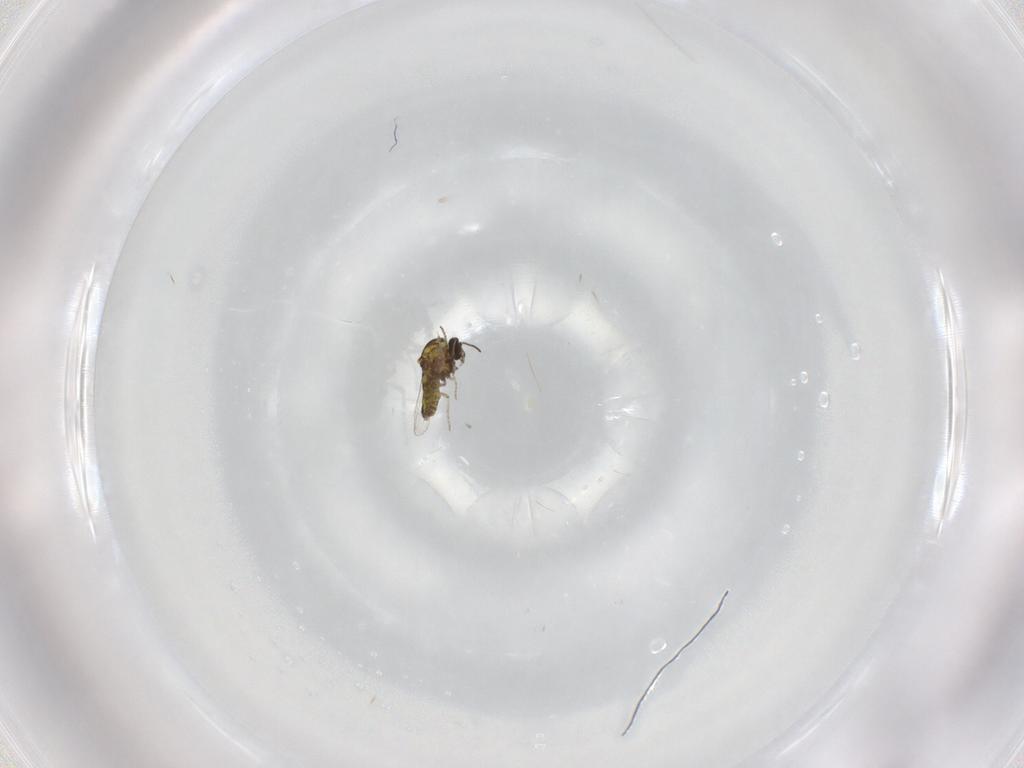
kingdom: Animalia
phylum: Arthropoda
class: Insecta
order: Diptera
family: Ceratopogonidae
